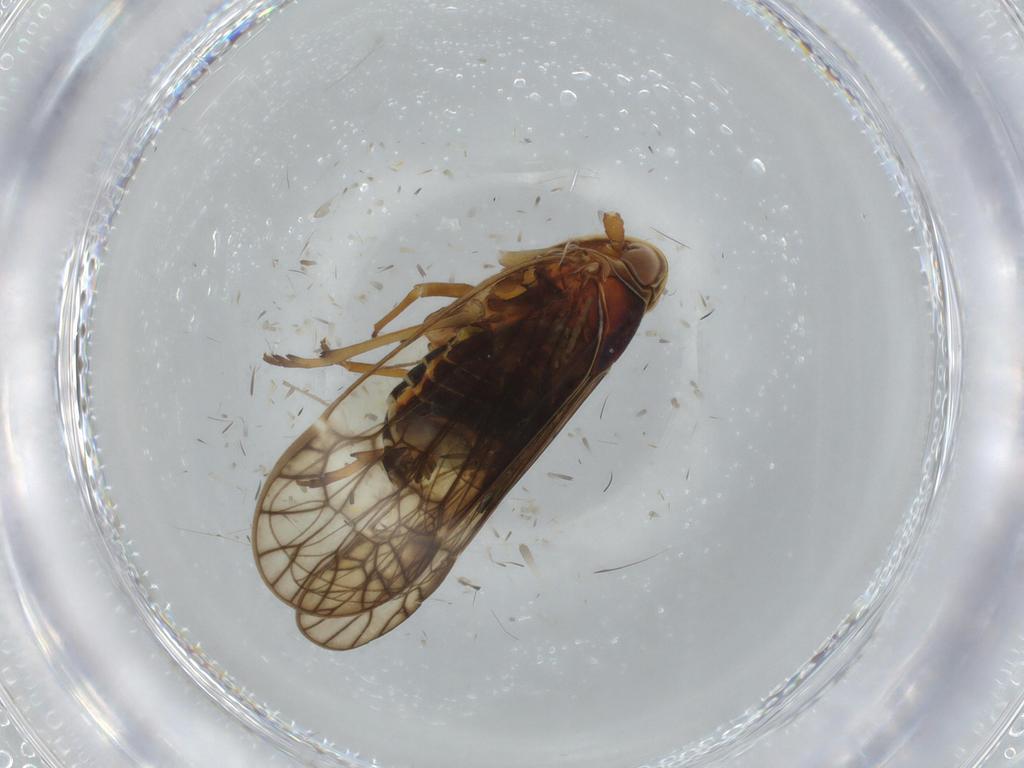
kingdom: Animalia
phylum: Arthropoda
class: Insecta
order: Hemiptera
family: Kinnaridae
